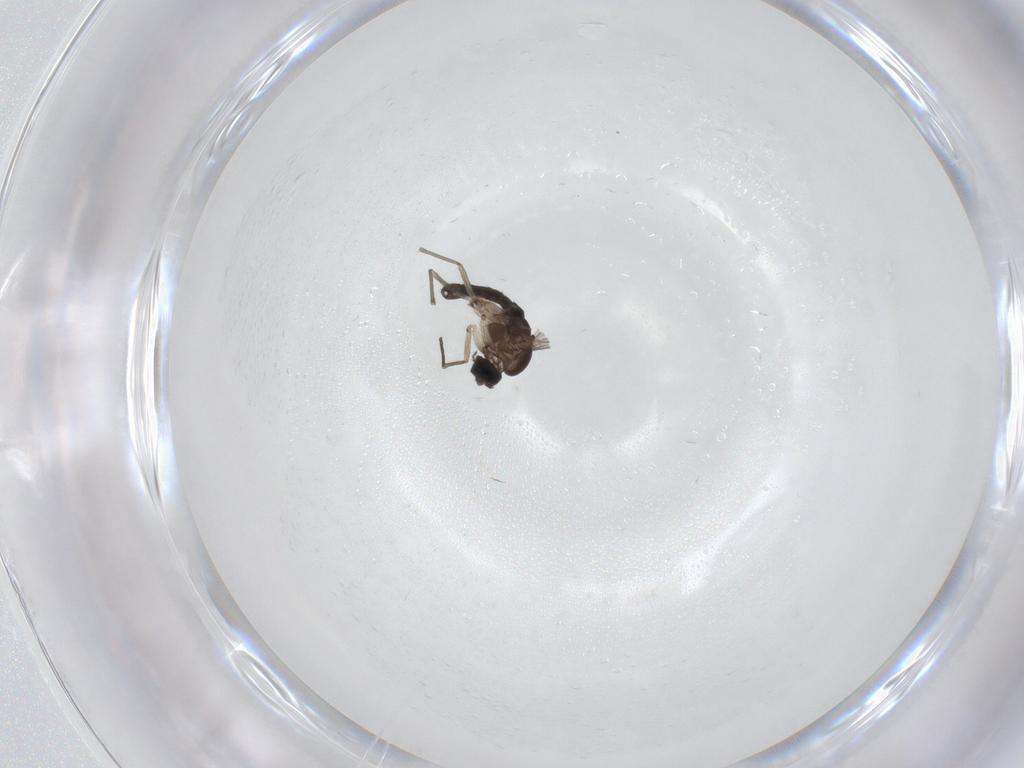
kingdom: Animalia
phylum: Arthropoda
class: Insecta
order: Diptera
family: Sciaridae
